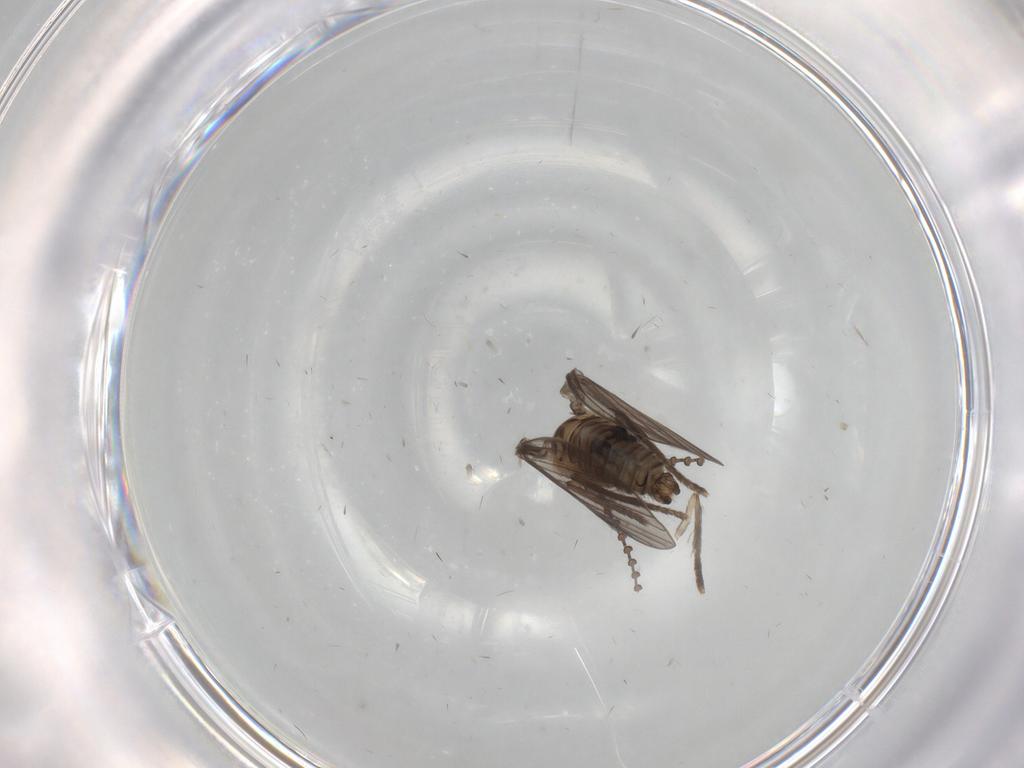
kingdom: Animalia
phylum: Arthropoda
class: Insecta
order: Diptera
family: Psychodidae
